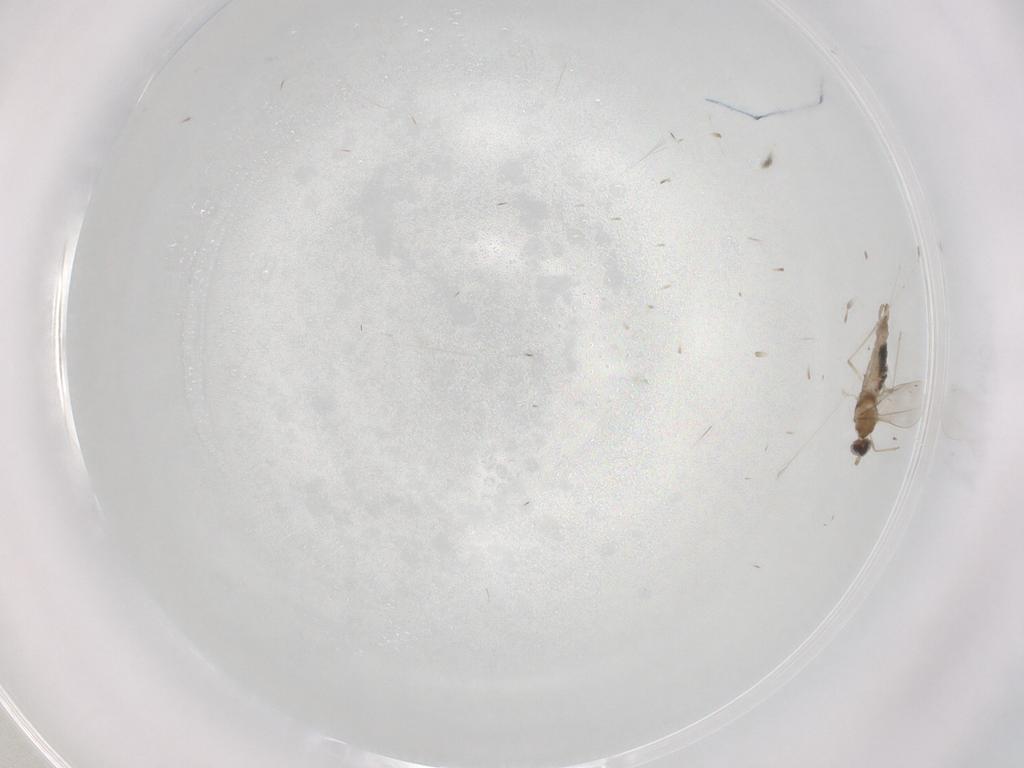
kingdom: Animalia
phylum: Arthropoda
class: Insecta
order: Diptera
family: Cecidomyiidae
